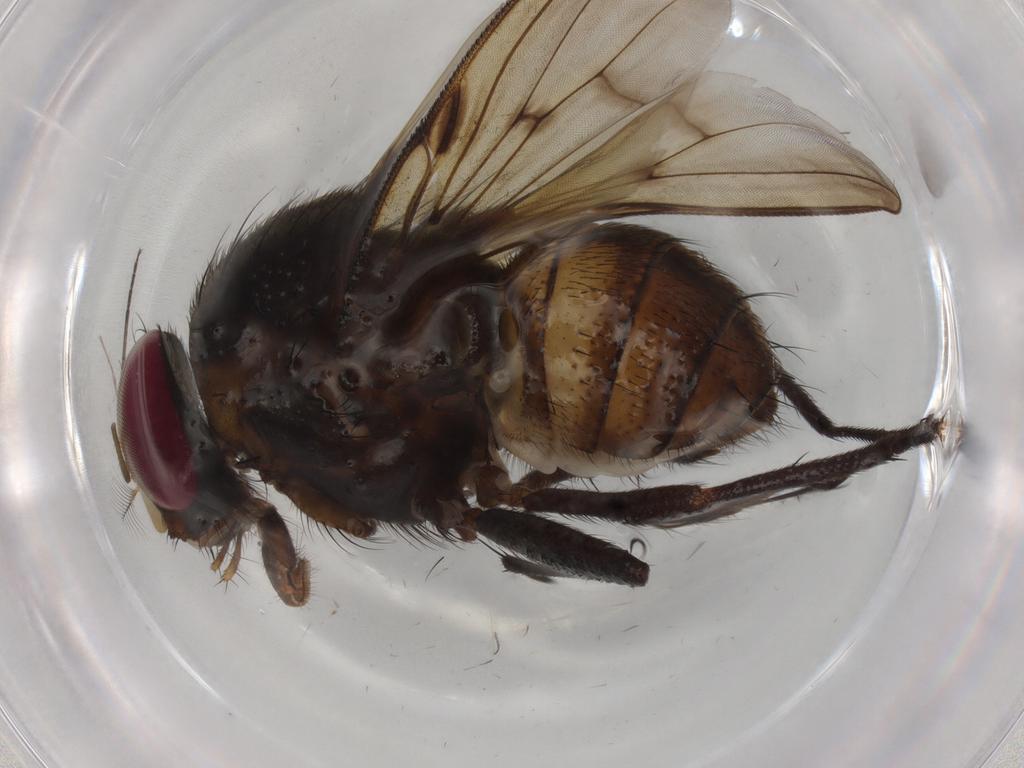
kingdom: Animalia
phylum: Arthropoda
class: Insecta
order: Diptera
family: Muscidae
